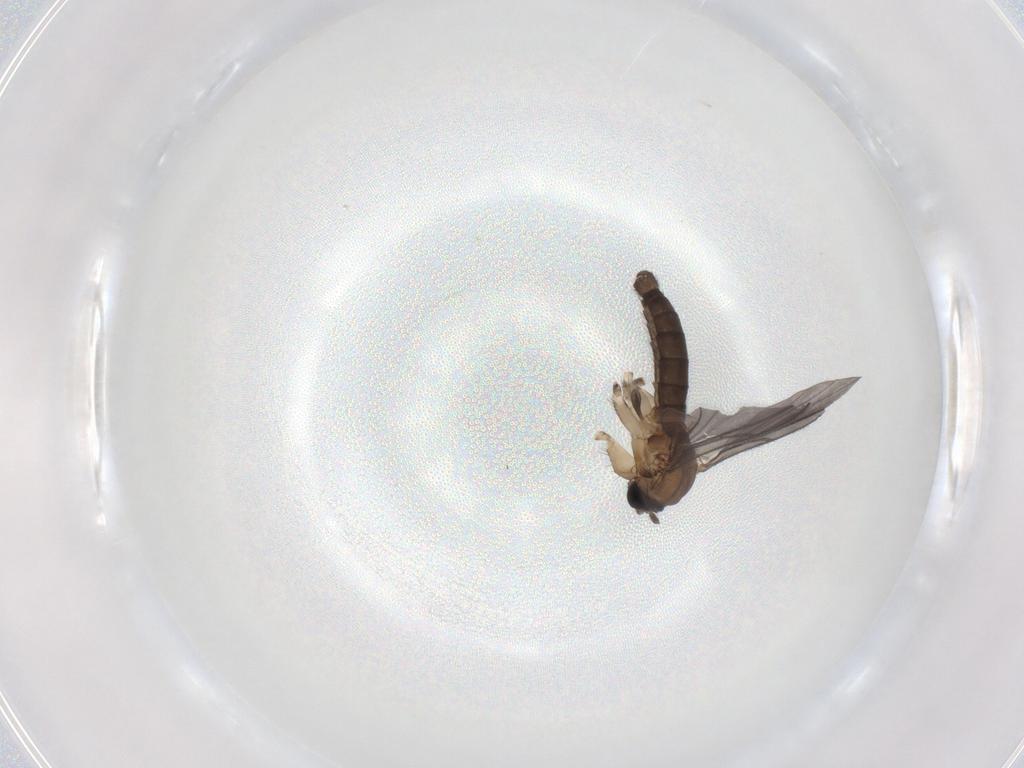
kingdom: Animalia
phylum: Arthropoda
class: Insecta
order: Diptera
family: Sciaridae
